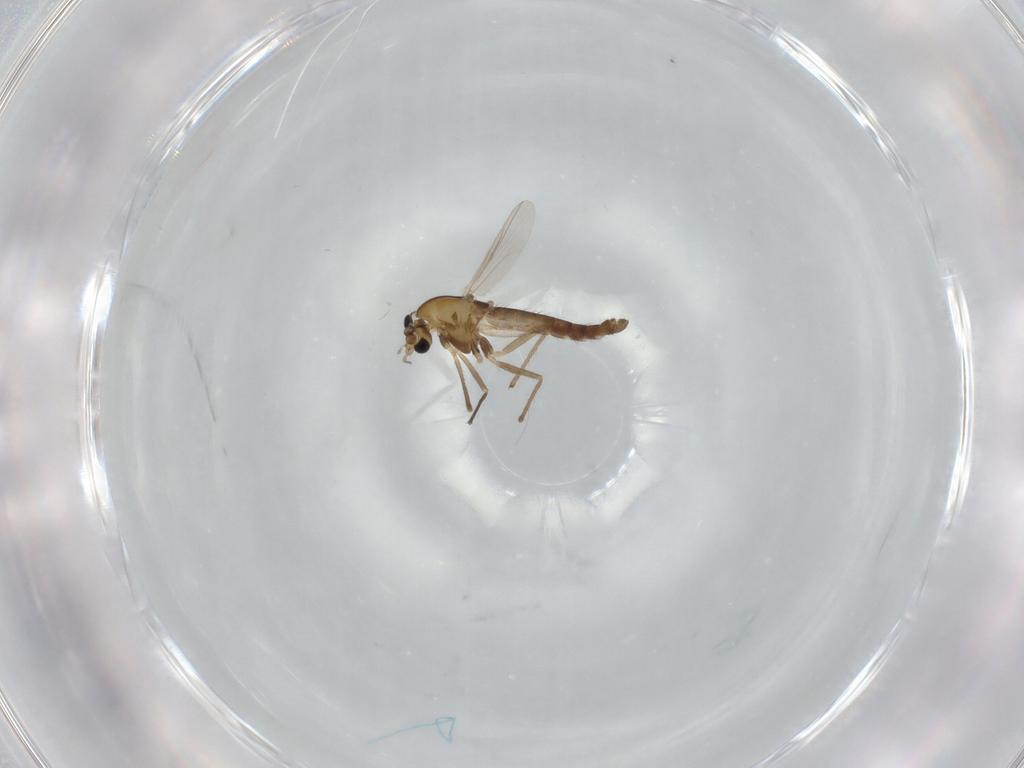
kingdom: Animalia
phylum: Arthropoda
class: Insecta
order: Diptera
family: Chironomidae
